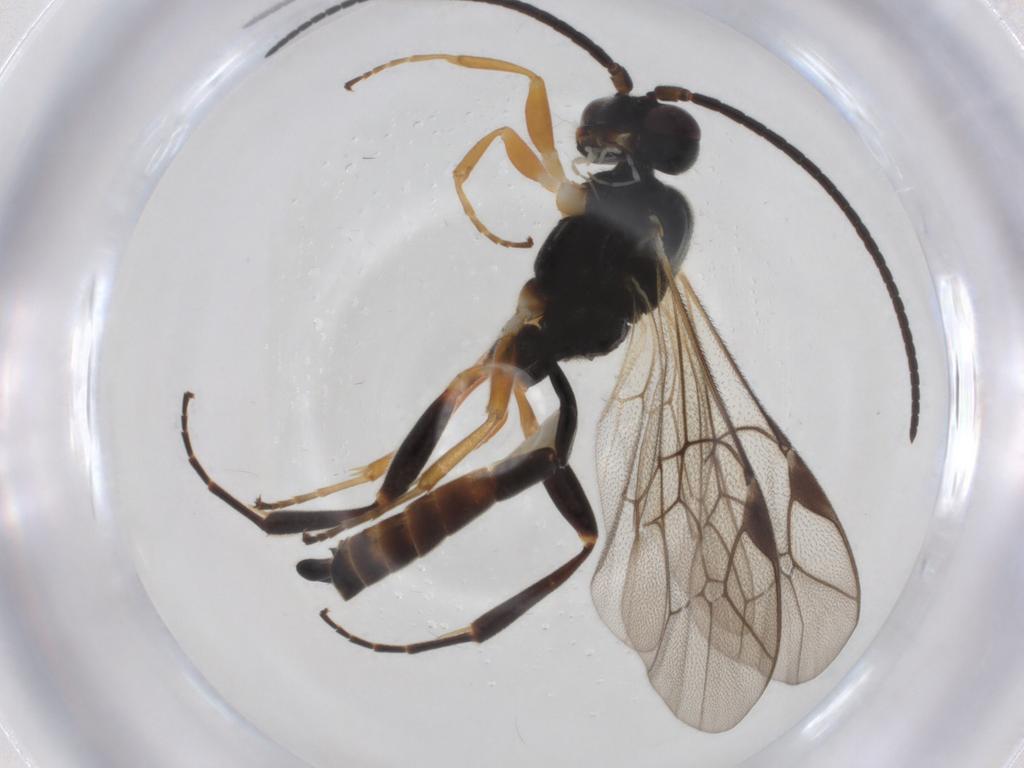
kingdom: Animalia
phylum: Arthropoda
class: Insecta
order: Hymenoptera
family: Ichneumonidae
